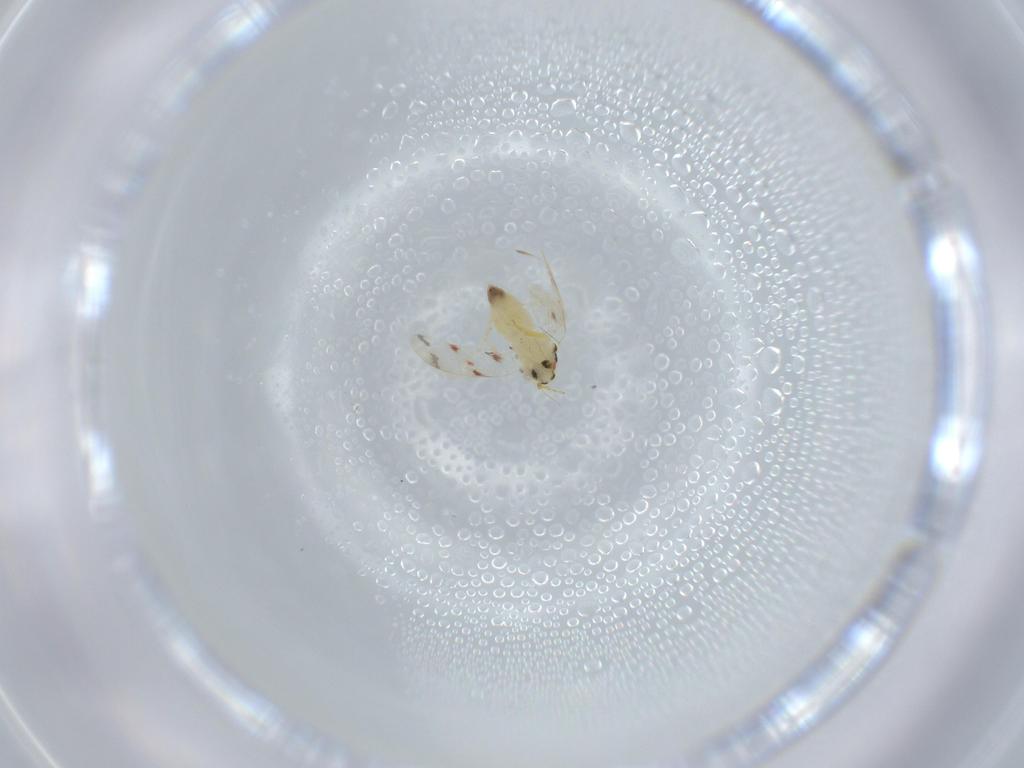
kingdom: Animalia
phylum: Arthropoda
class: Insecta
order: Hemiptera
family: Aleyrodidae
